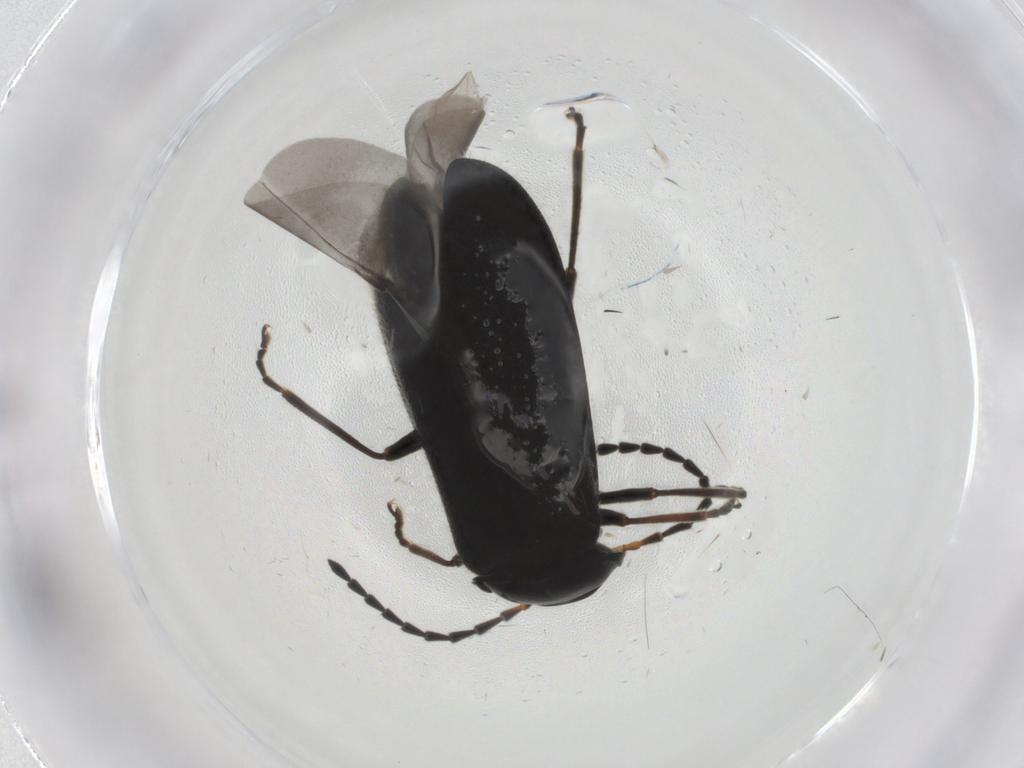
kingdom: Animalia
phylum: Arthropoda
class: Insecta
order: Coleoptera
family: Cantharidae
